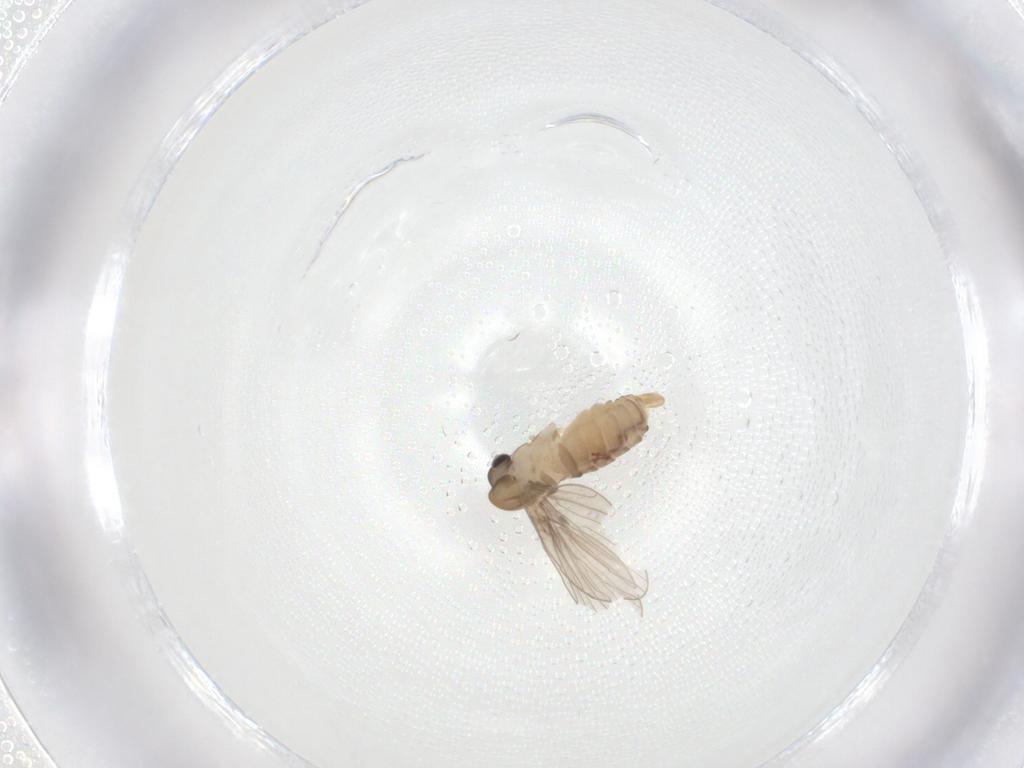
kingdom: Animalia
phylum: Arthropoda
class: Insecta
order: Diptera
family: Psychodidae
